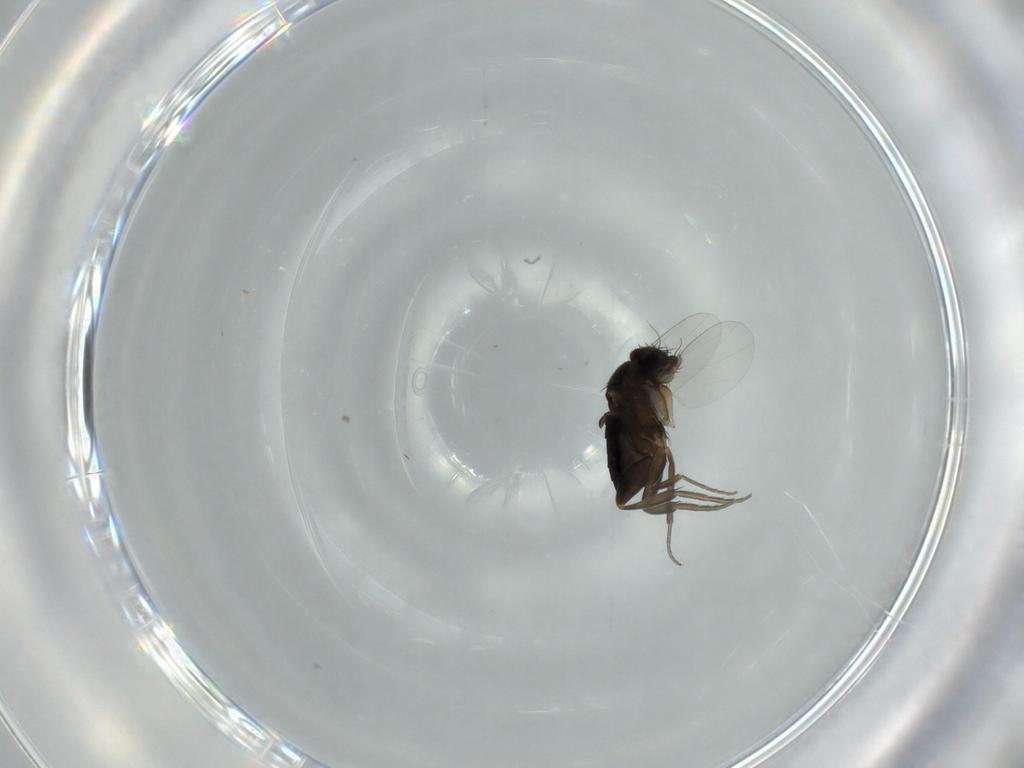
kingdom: Animalia
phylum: Arthropoda
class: Insecta
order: Diptera
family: Phoridae
